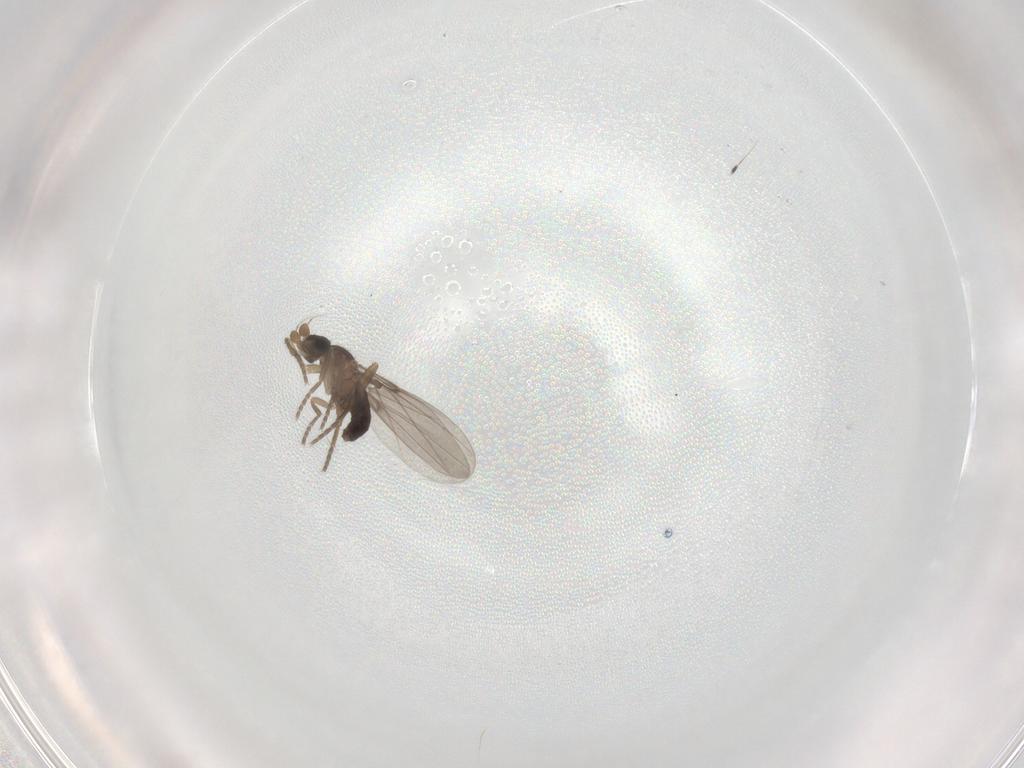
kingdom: Animalia
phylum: Arthropoda
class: Insecta
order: Diptera
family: Phoridae
